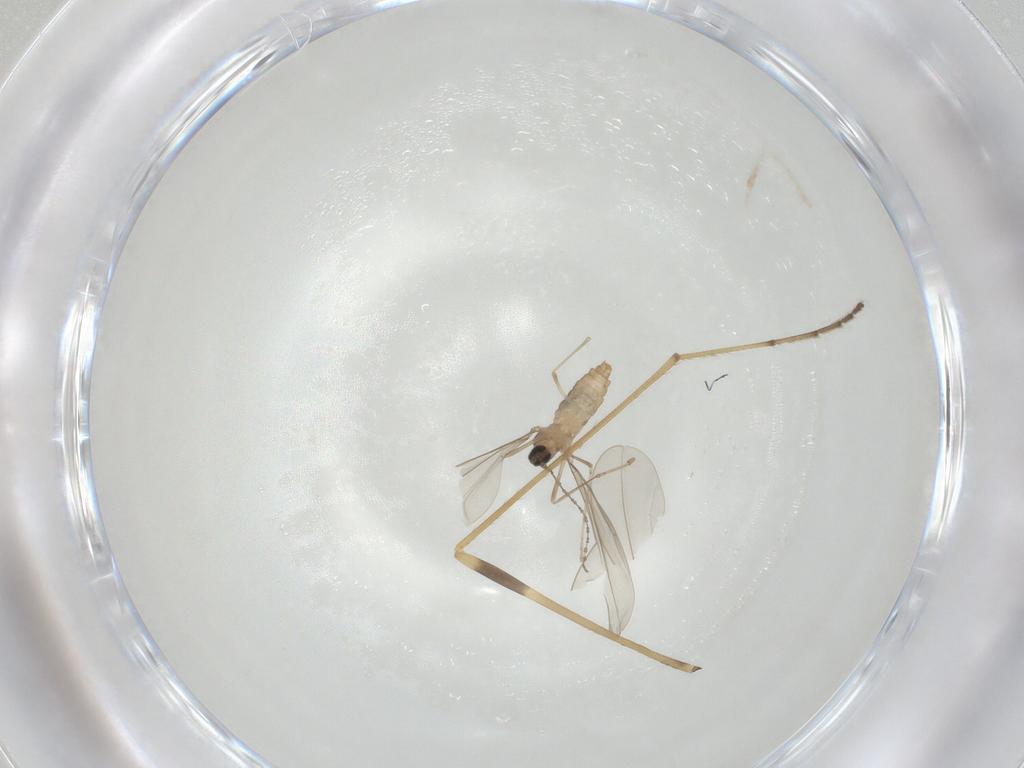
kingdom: Animalia
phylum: Arthropoda
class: Insecta
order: Diptera
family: Limoniidae
